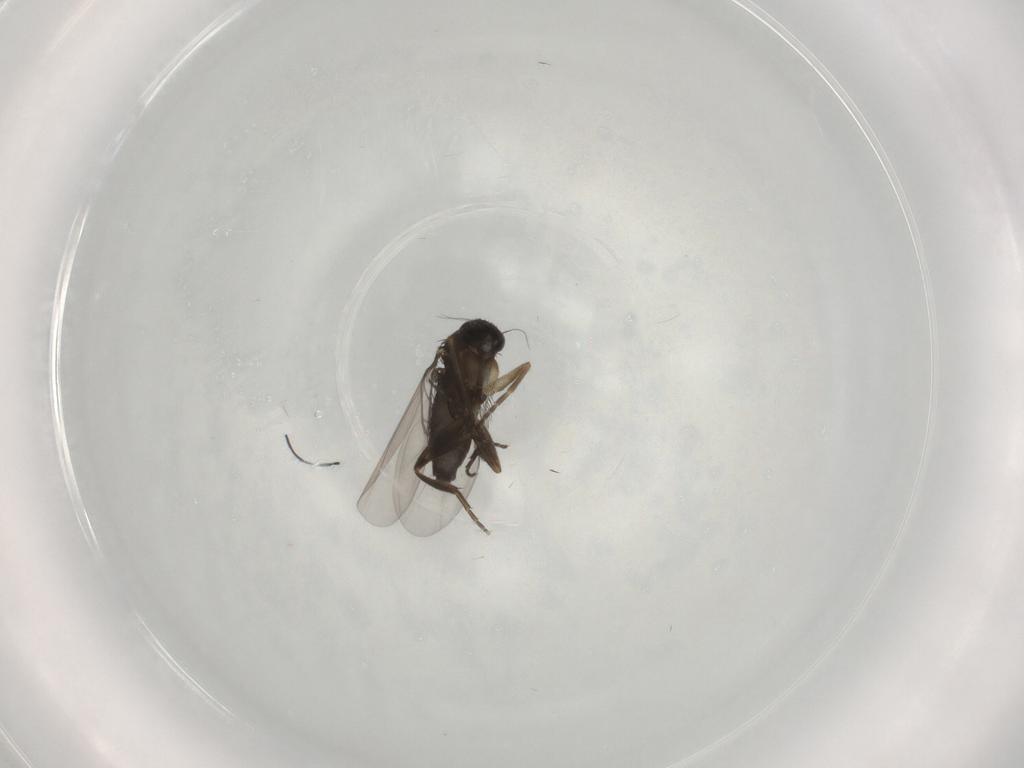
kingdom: Animalia
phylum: Arthropoda
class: Insecta
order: Diptera
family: Phoridae
